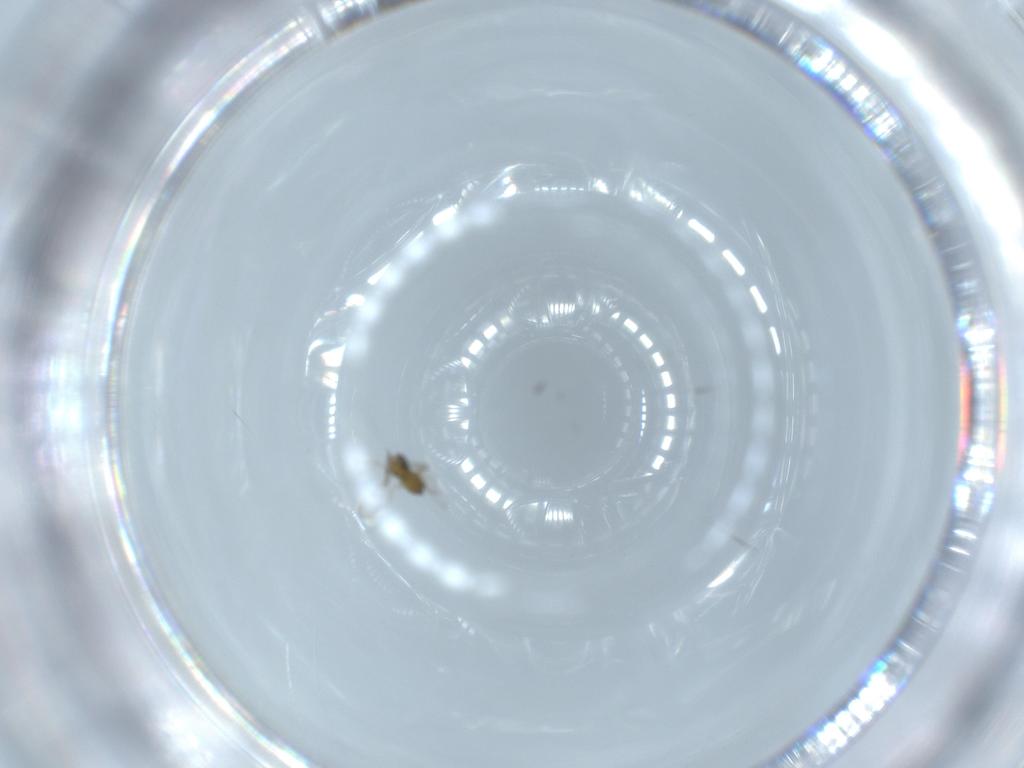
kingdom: Animalia
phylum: Arthropoda
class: Insecta
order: Hymenoptera
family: Trichogrammatidae
